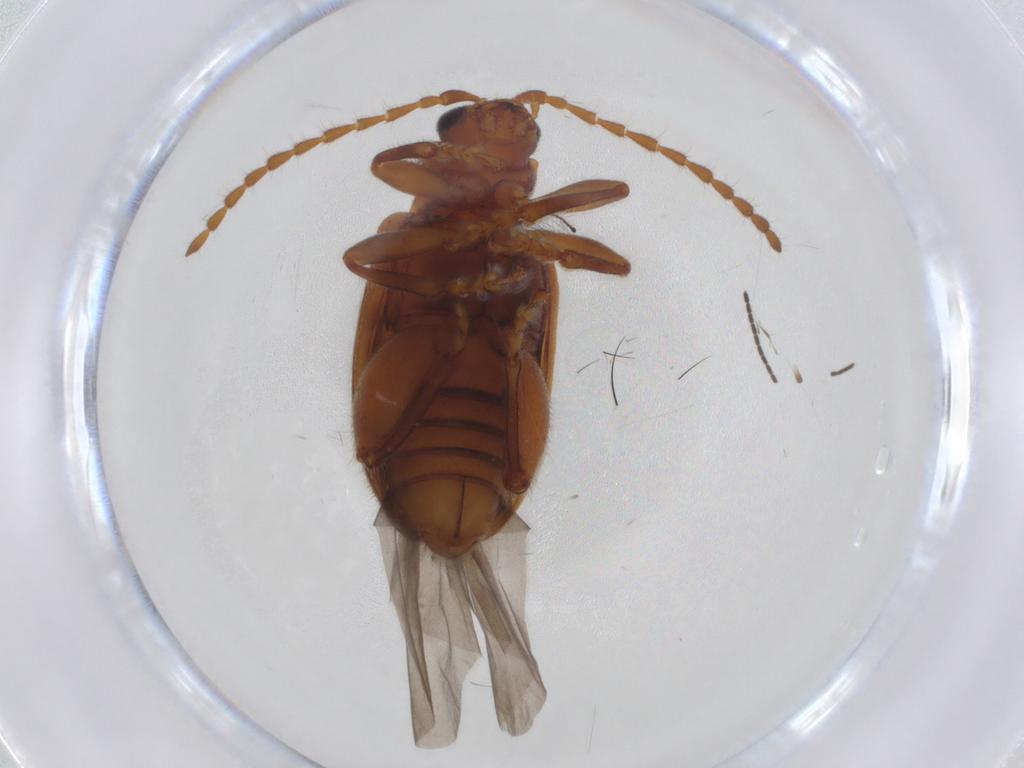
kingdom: Animalia
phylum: Arthropoda
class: Insecta
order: Coleoptera
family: Chrysomelidae
